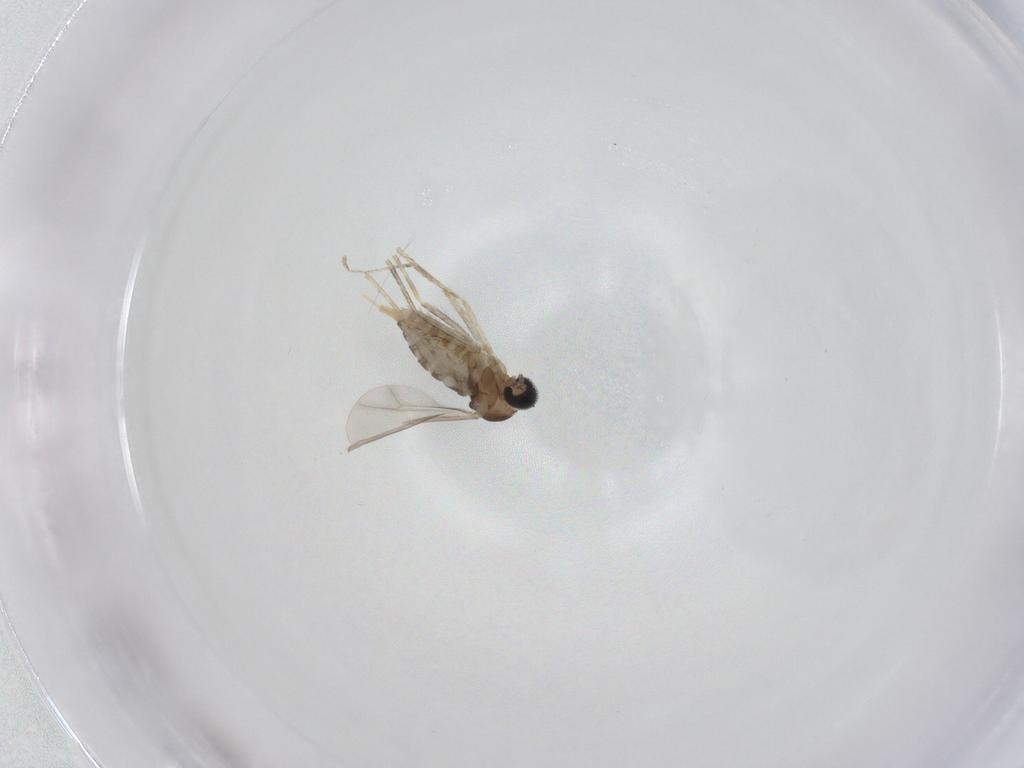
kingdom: Animalia
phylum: Arthropoda
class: Insecta
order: Diptera
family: Cecidomyiidae
